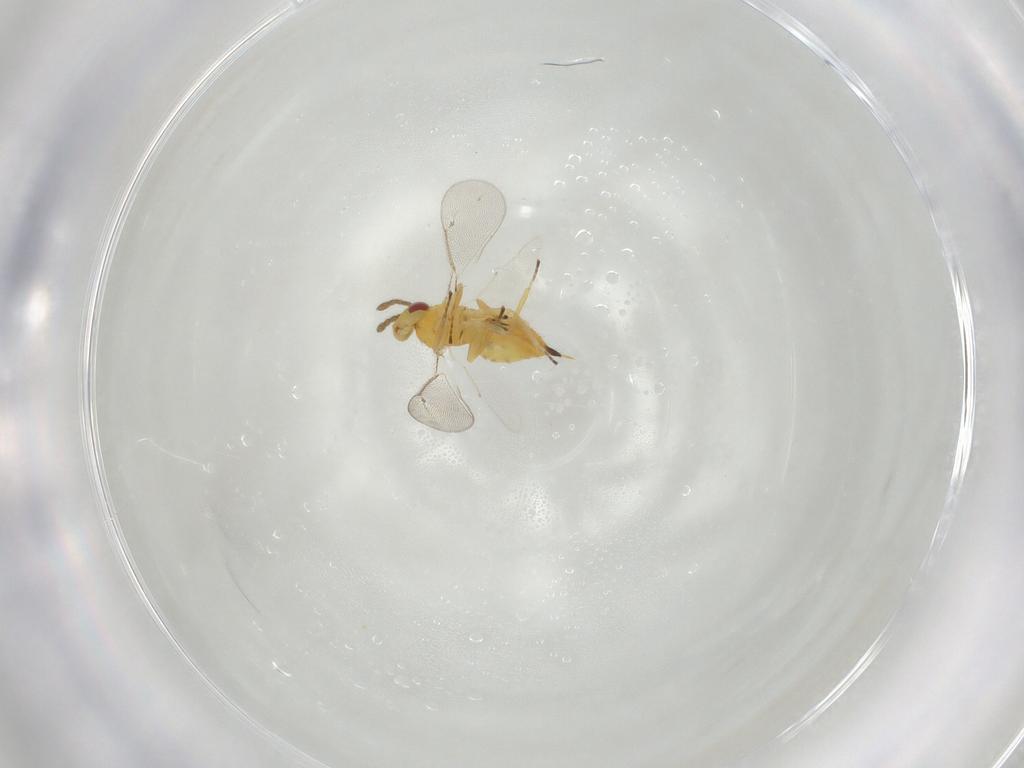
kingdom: Animalia
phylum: Arthropoda
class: Insecta
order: Hymenoptera
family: Eulophidae
